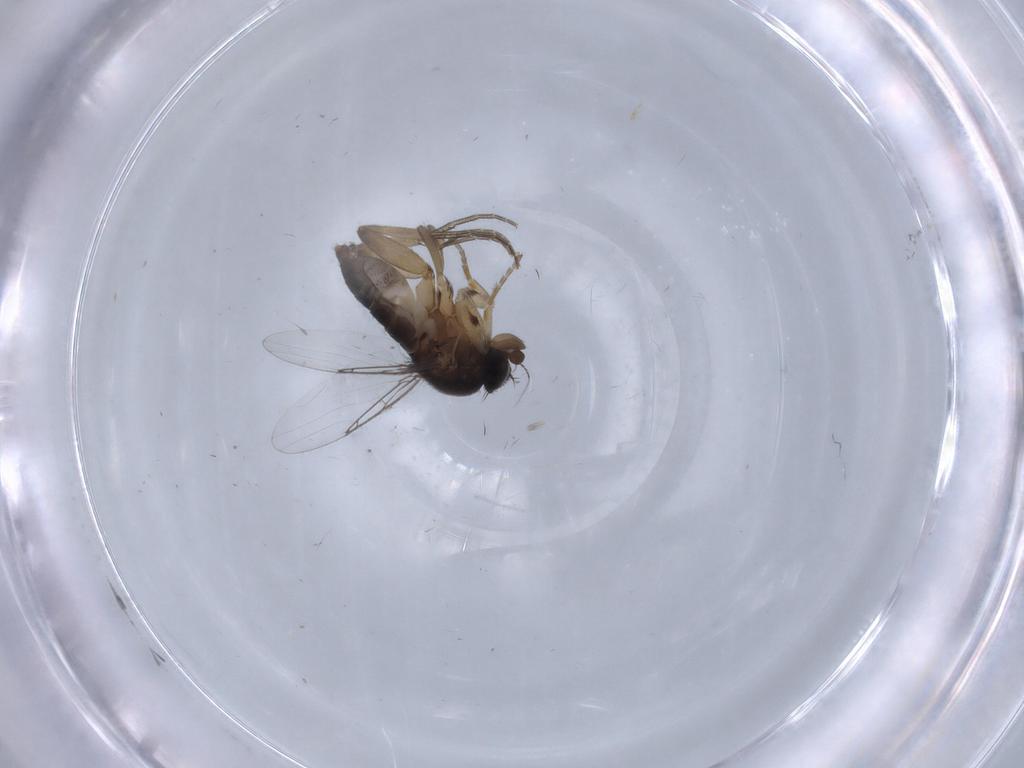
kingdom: Animalia
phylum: Arthropoda
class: Insecta
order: Diptera
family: Phoridae
